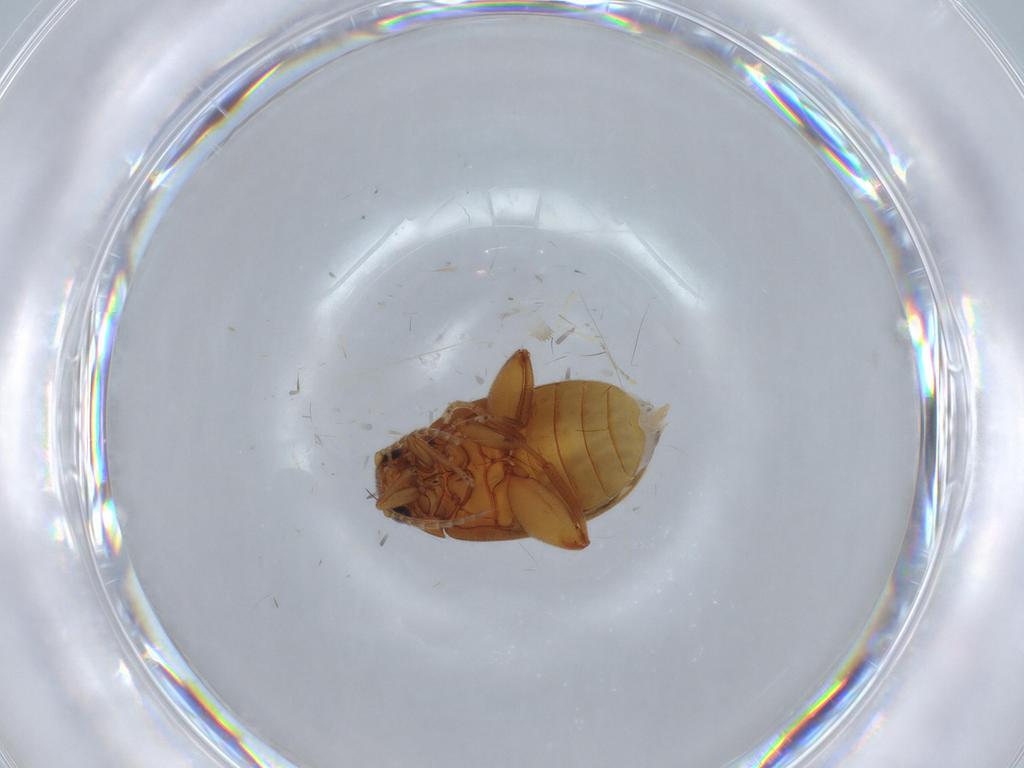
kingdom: Animalia
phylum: Arthropoda
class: Insecta
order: Coleoptera
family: Scirtidae
